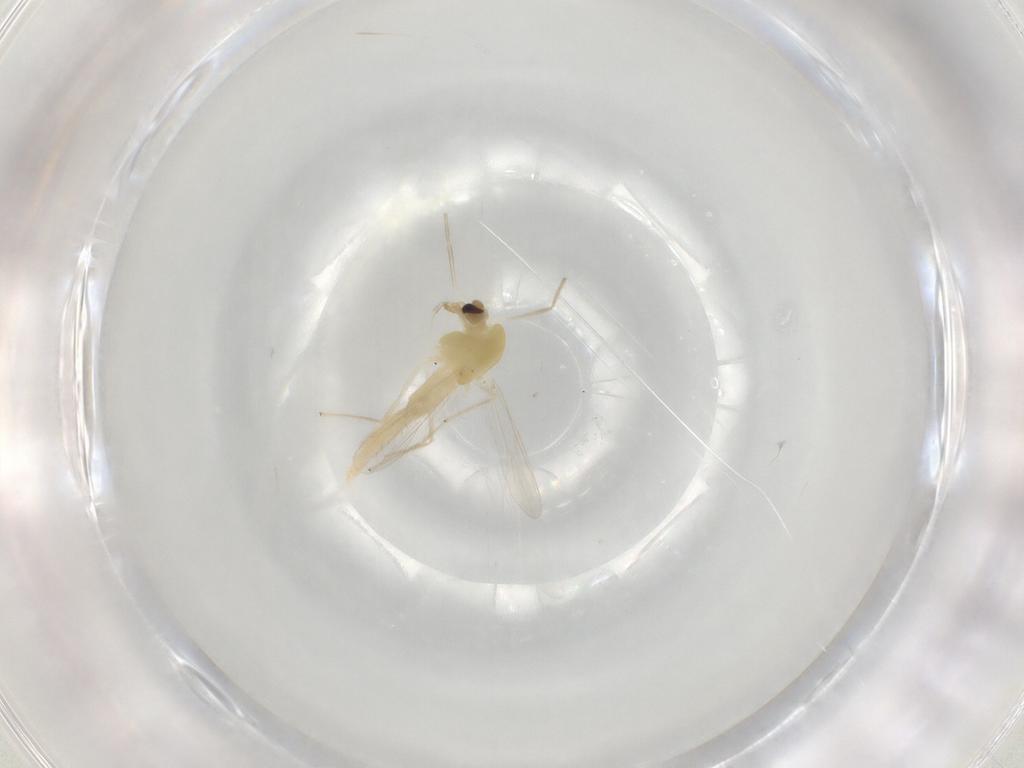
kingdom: Animalia
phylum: Arthropoda
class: Insecta
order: Diptera
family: Chironomidae
